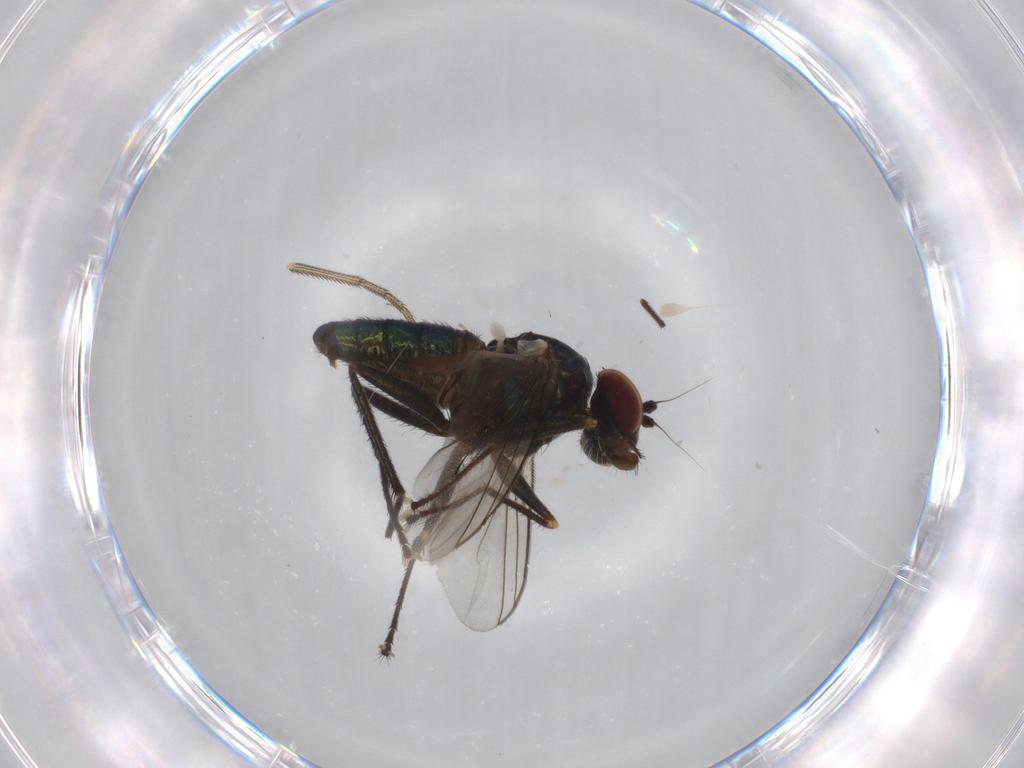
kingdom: Animalia
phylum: Arthropoda
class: Insecta
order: Diptera
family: Dolichopodidae
